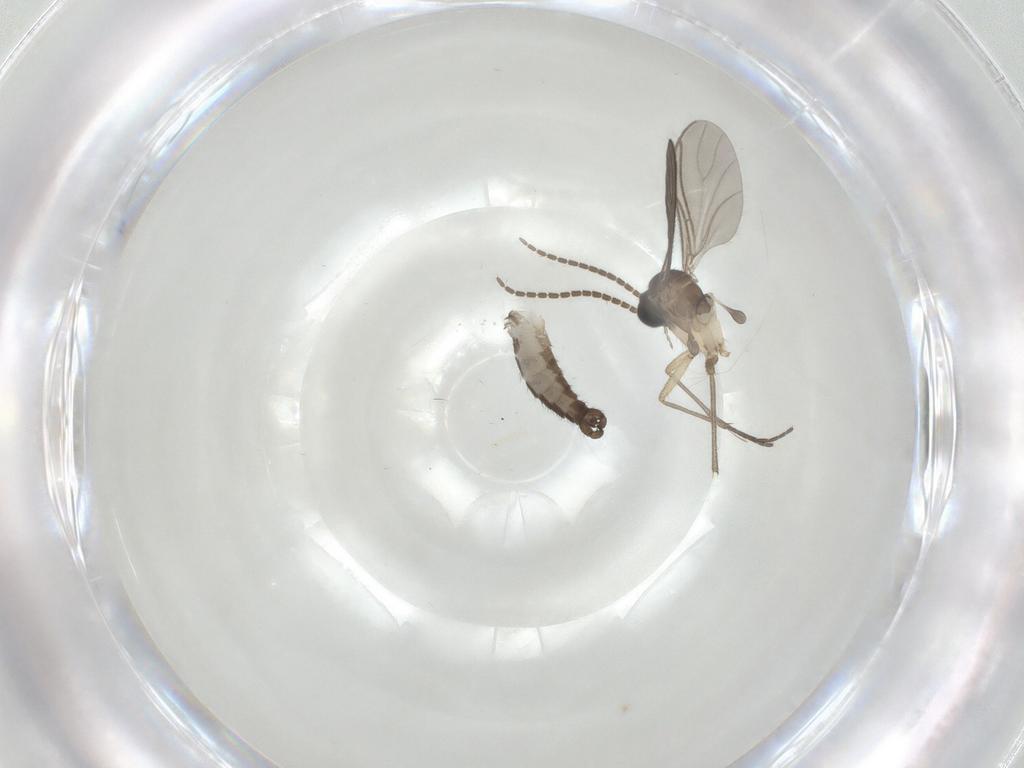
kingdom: Animalia
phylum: Arthropoda
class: Insecta
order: Diptera
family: Sciaridae
